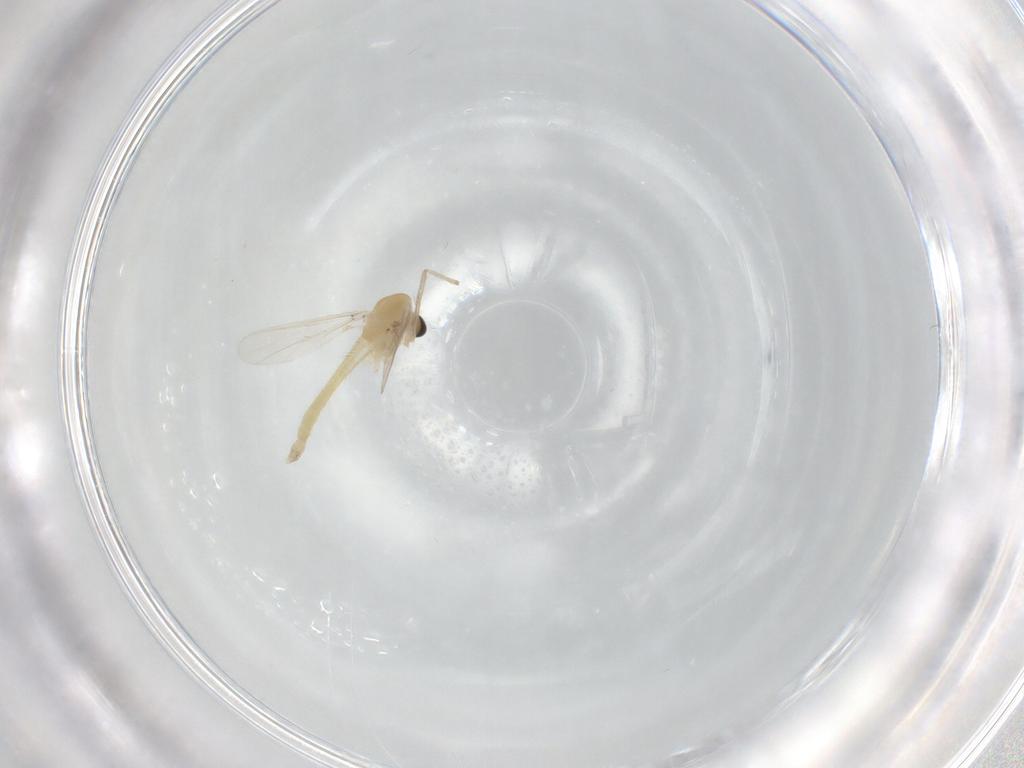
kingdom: Animalia
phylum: Arthropoda
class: Insecta
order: Diptera
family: Chironomidae
